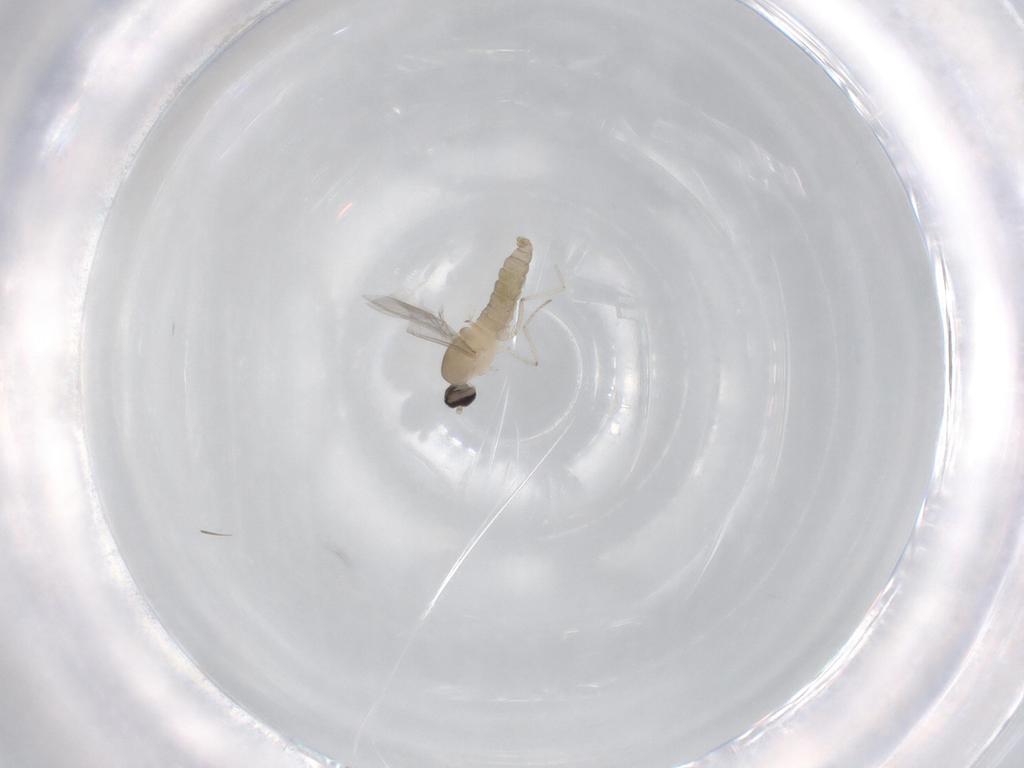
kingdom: Animalia
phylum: Arthropoda
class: Insecta
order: Diptera
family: Cecidomyiidae
